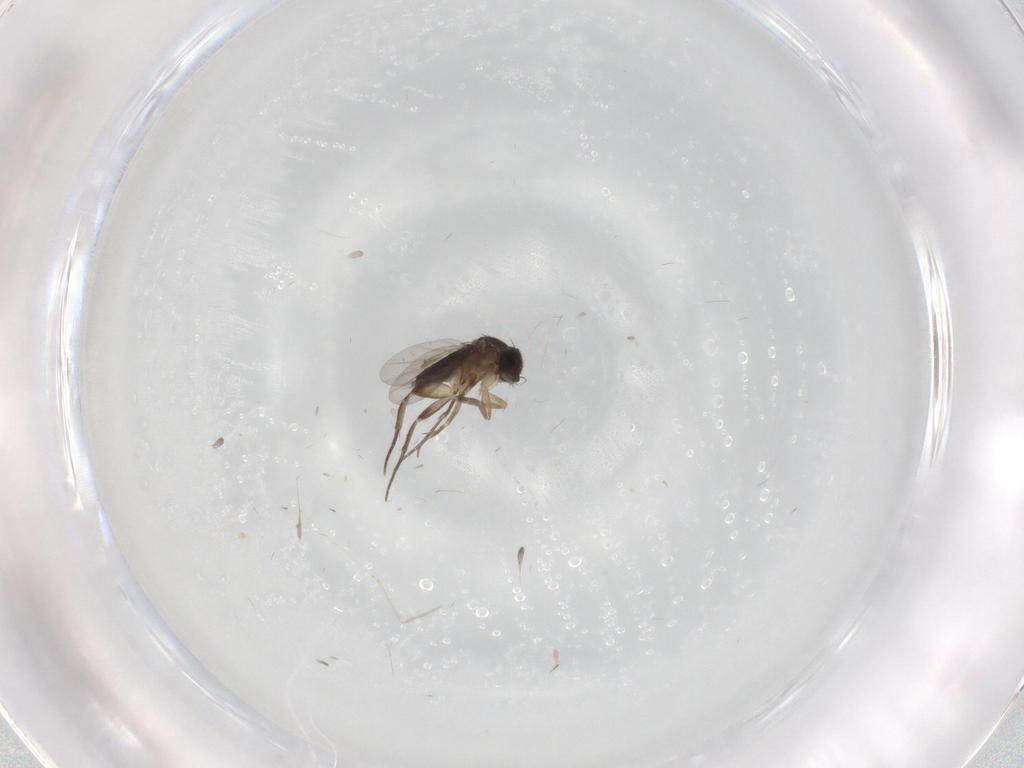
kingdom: Animalia
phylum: Arthropoda
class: Insecta
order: Diptera
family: Phoridae
